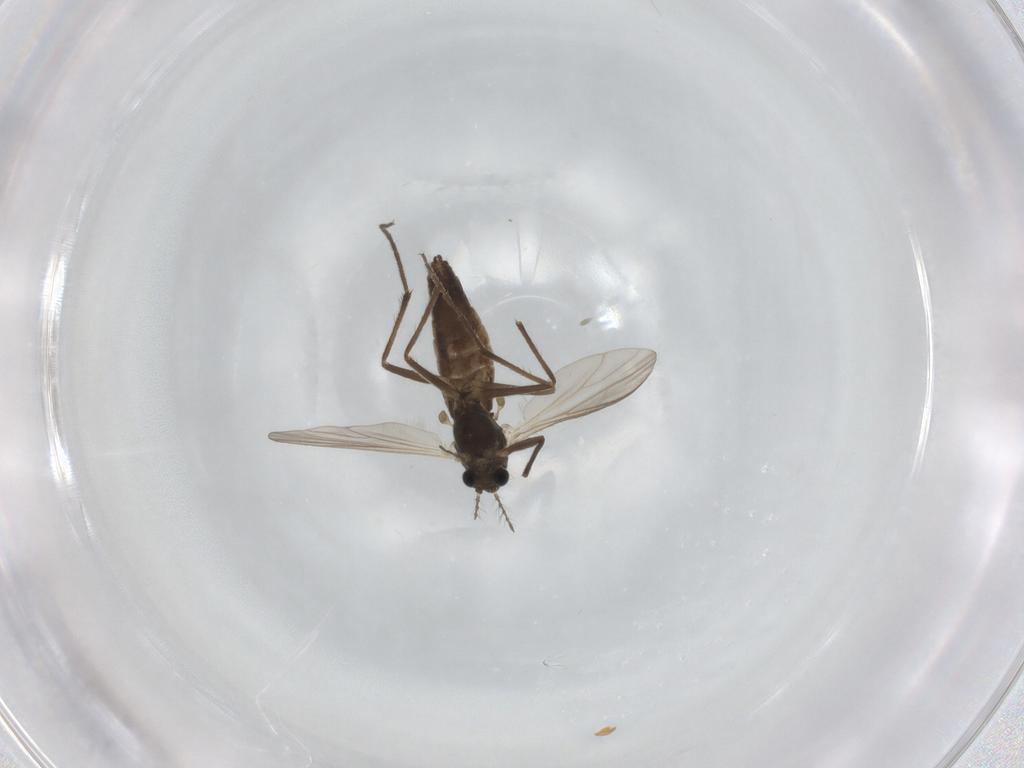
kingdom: Animalia
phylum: Arthropoda
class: Insecta
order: Diptera
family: Chironomidae
